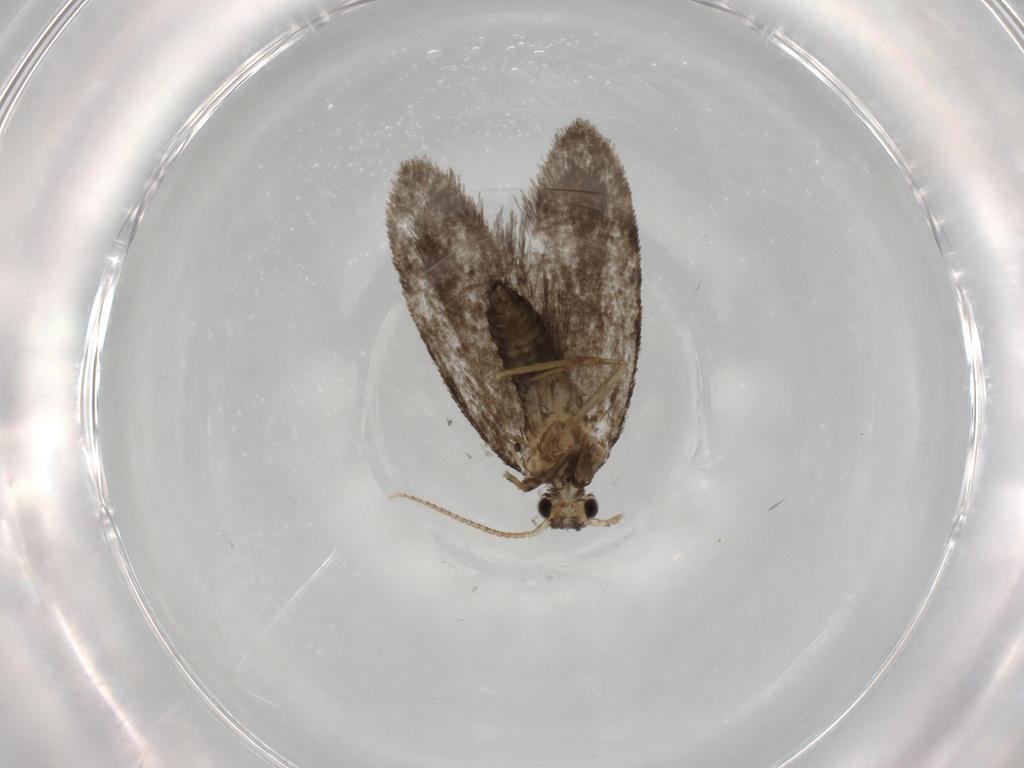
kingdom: Animalia
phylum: Arthropoda
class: Insecta
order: Lepidoptera
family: Psychidae
